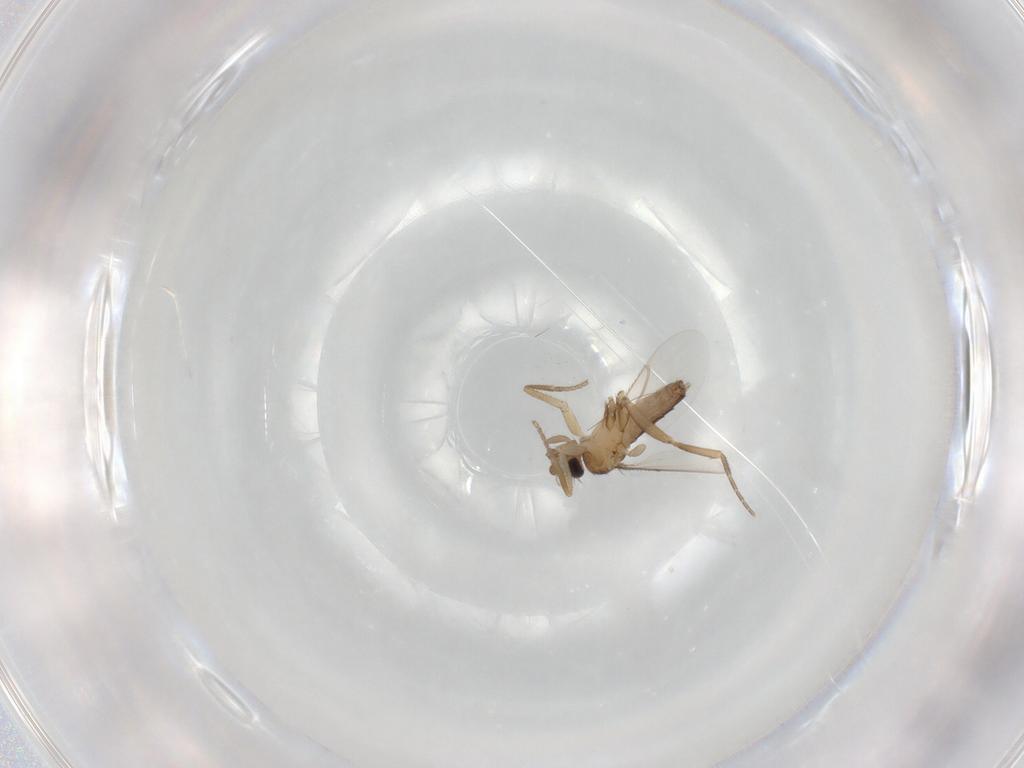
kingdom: Animalia
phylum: Arthropoda
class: Insecta
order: Diptera
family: Phoridae
